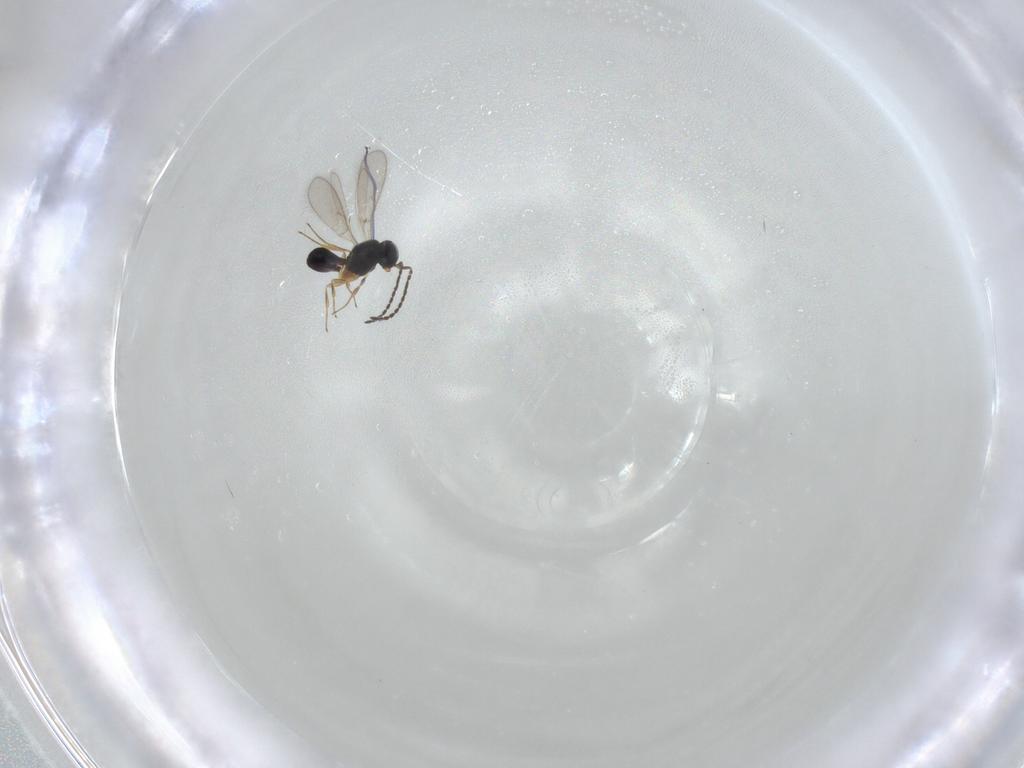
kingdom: Animalia
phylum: Arthropoda
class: Insecta
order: Hymenoptera
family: Scelionidae
